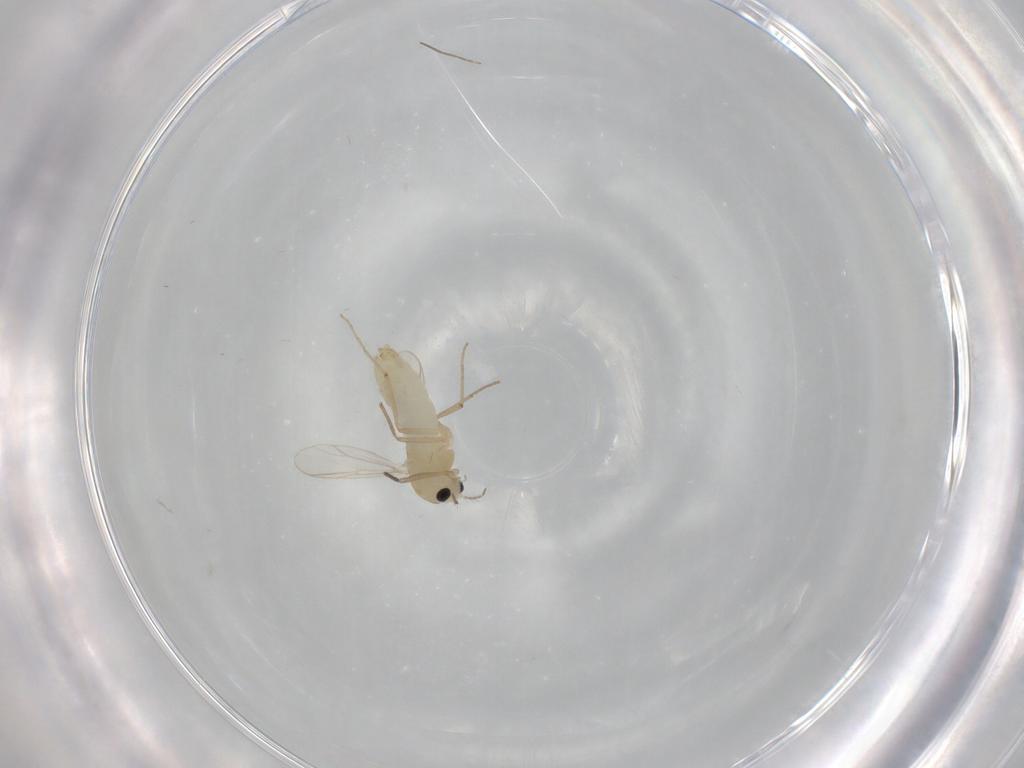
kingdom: Animalia
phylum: Arthropoda
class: Insecta
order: Diptera
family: Chironomidae
